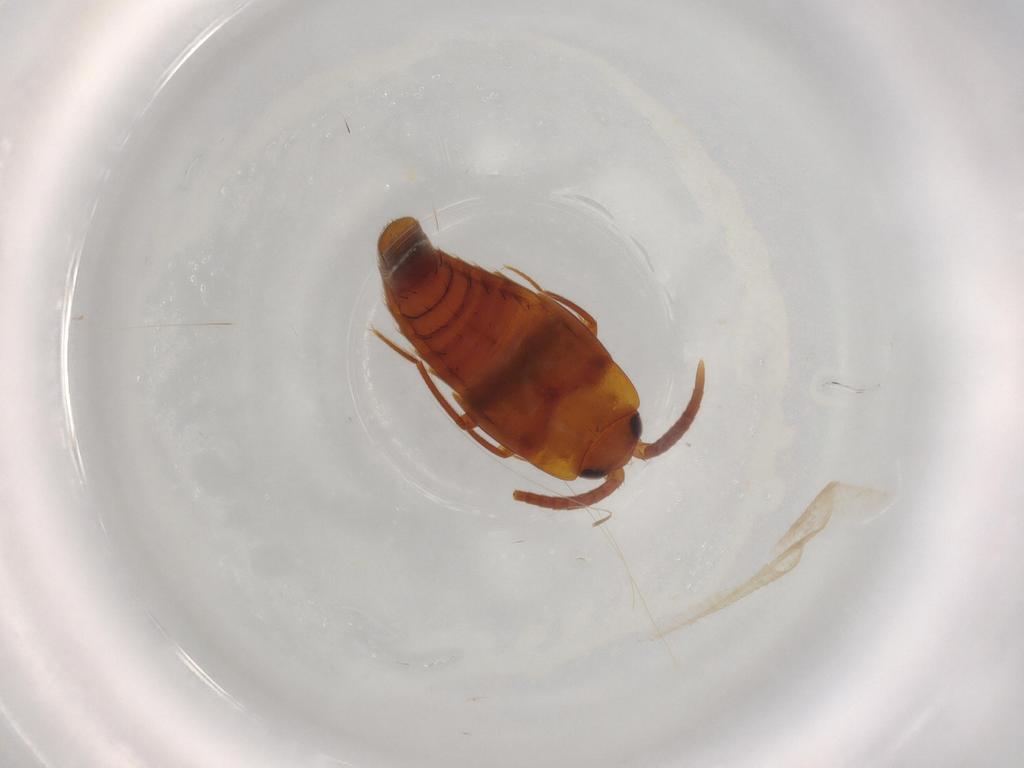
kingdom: Animalia
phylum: Arthropoda
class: Insecta
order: Coleoptera
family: Staphylinidae
